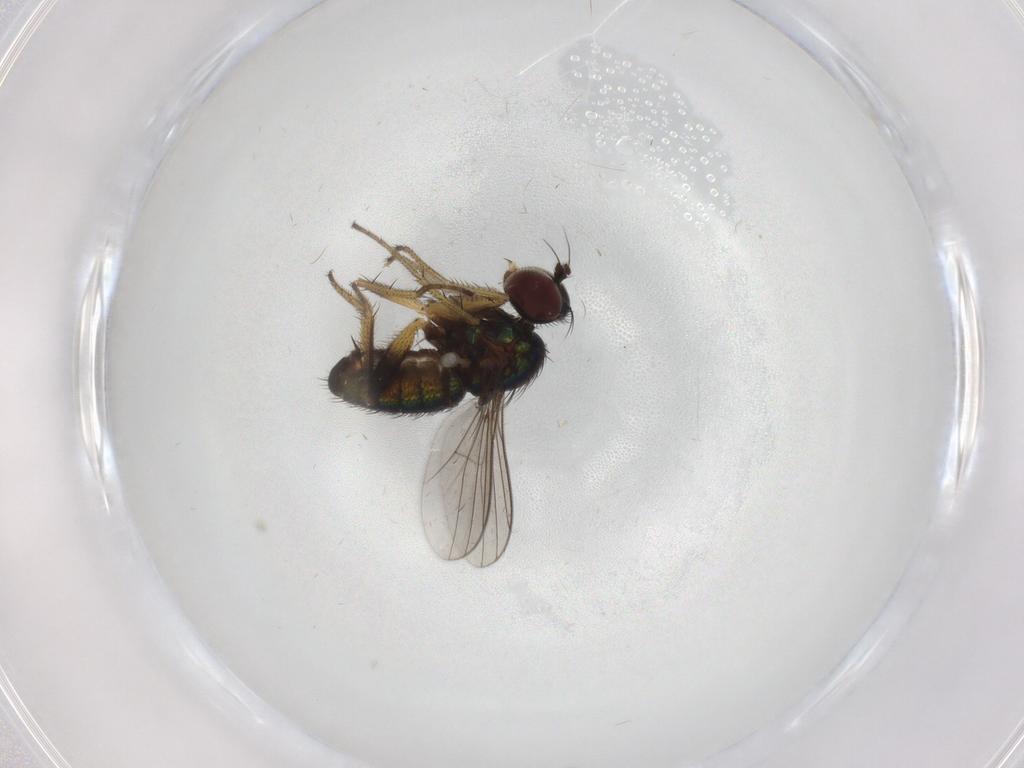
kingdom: Animalia
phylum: Arthropoda
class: Insecta
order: Diptera
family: Dolichopodidae
